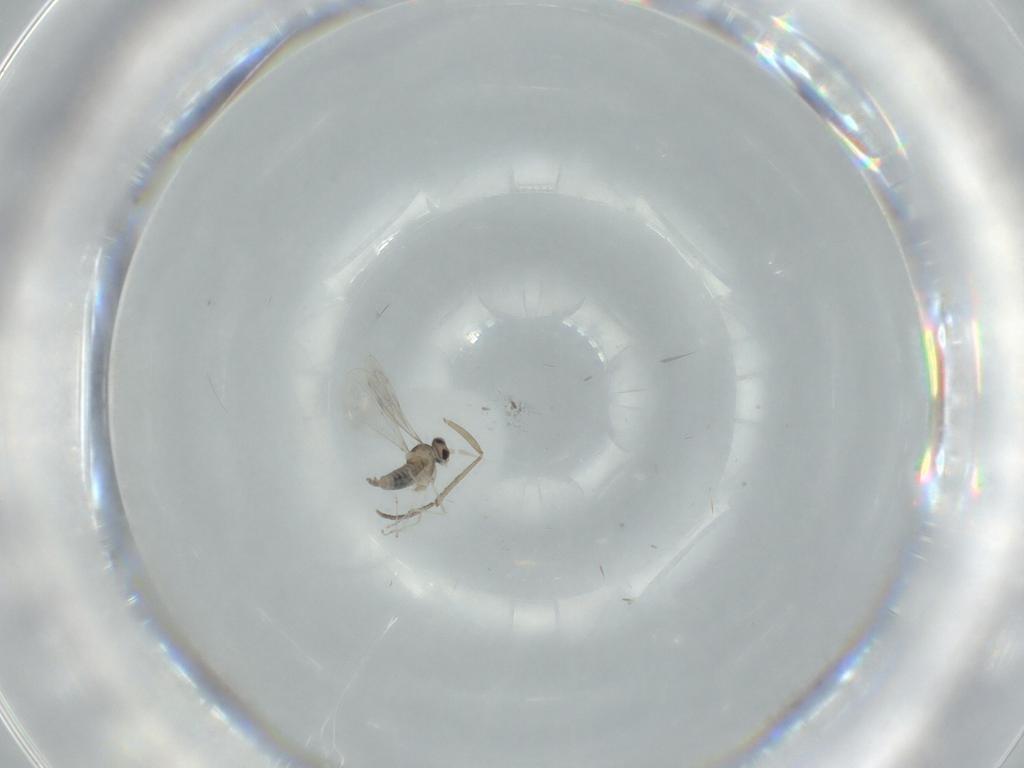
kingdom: Animalia
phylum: Arthropoda
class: Insecta
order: Diptera
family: Cecidomyiidae
